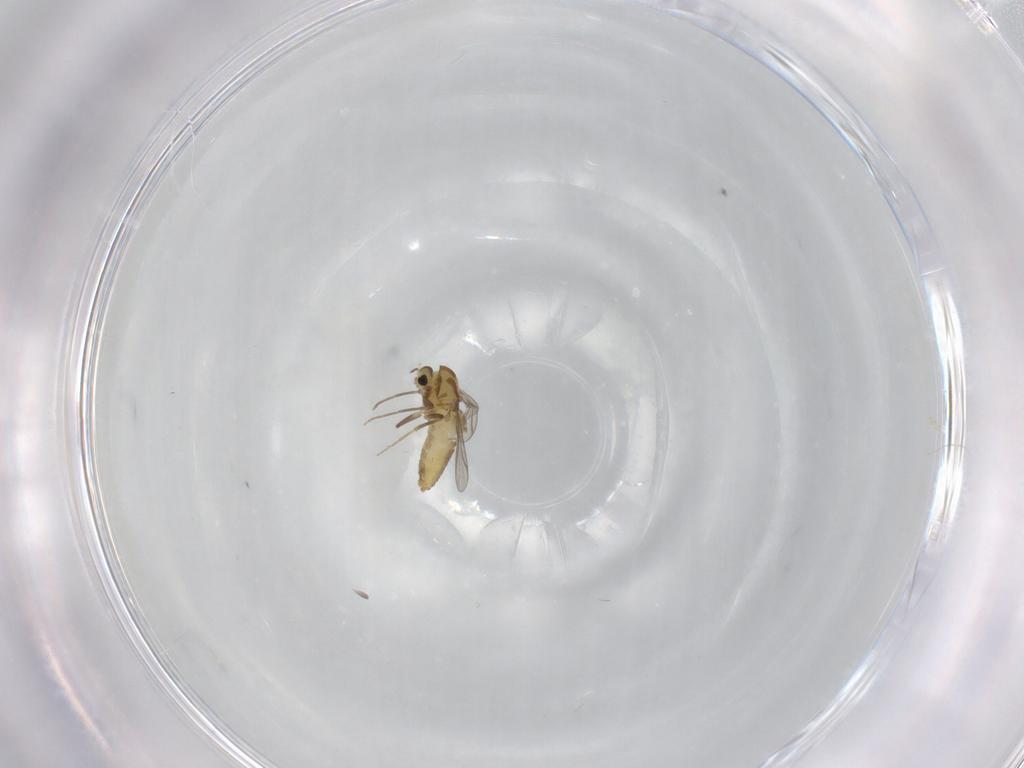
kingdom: Animalia
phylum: Arthropoda
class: Insecta
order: Diptera
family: Chironomidae
